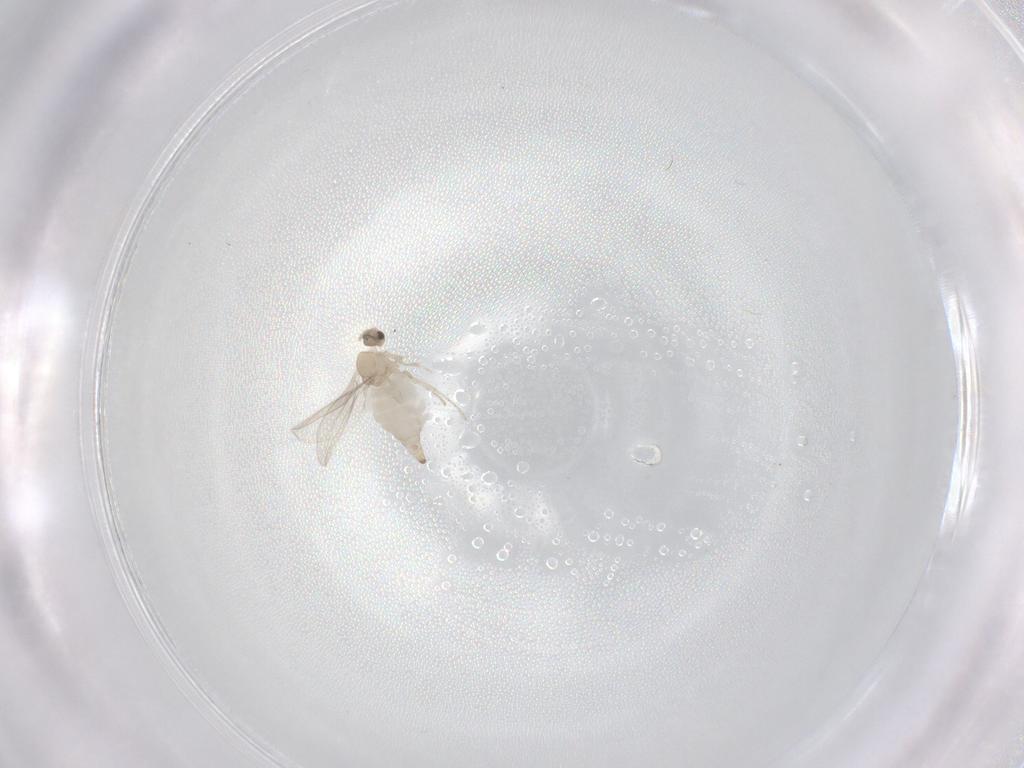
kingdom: Animalia
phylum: Arthropoda
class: Insecta
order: Diptera
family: Cecidomyiidae
